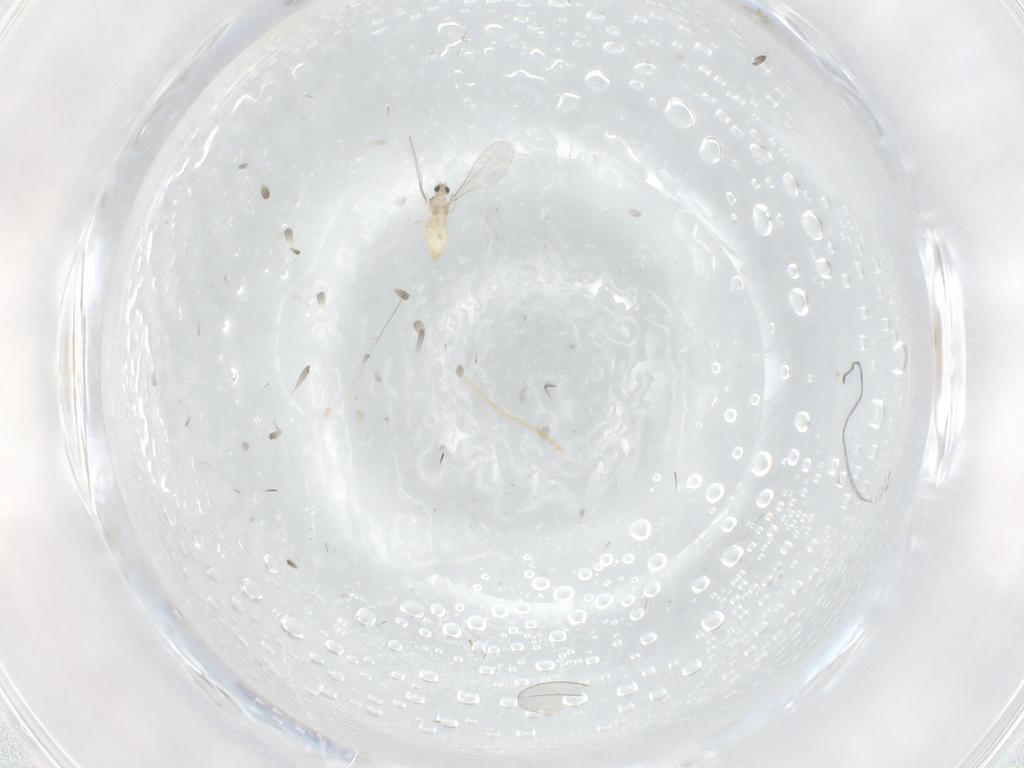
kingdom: Animalia
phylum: Arthropoda
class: Insecta
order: Diptera
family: Cecidomyiidae
